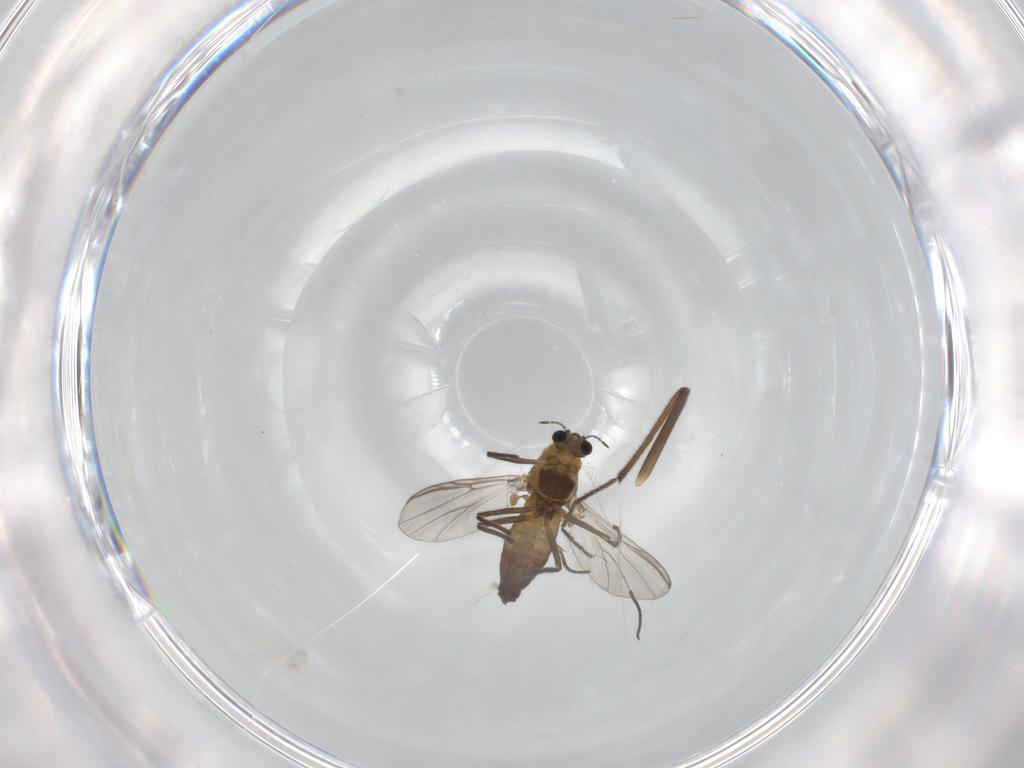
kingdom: Animalia
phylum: Arthropoda
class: Insecta
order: Diptera
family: Chironomidae
